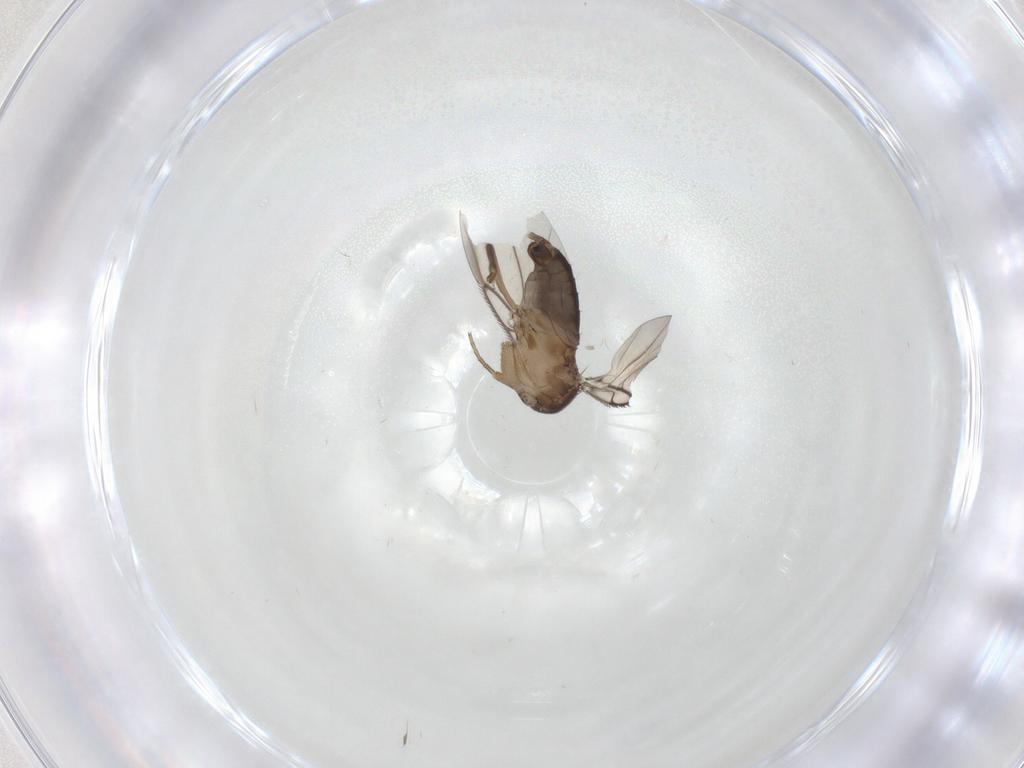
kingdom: Animalia
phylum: Arthropoda
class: Insecta
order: Diptera
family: Phoridae
